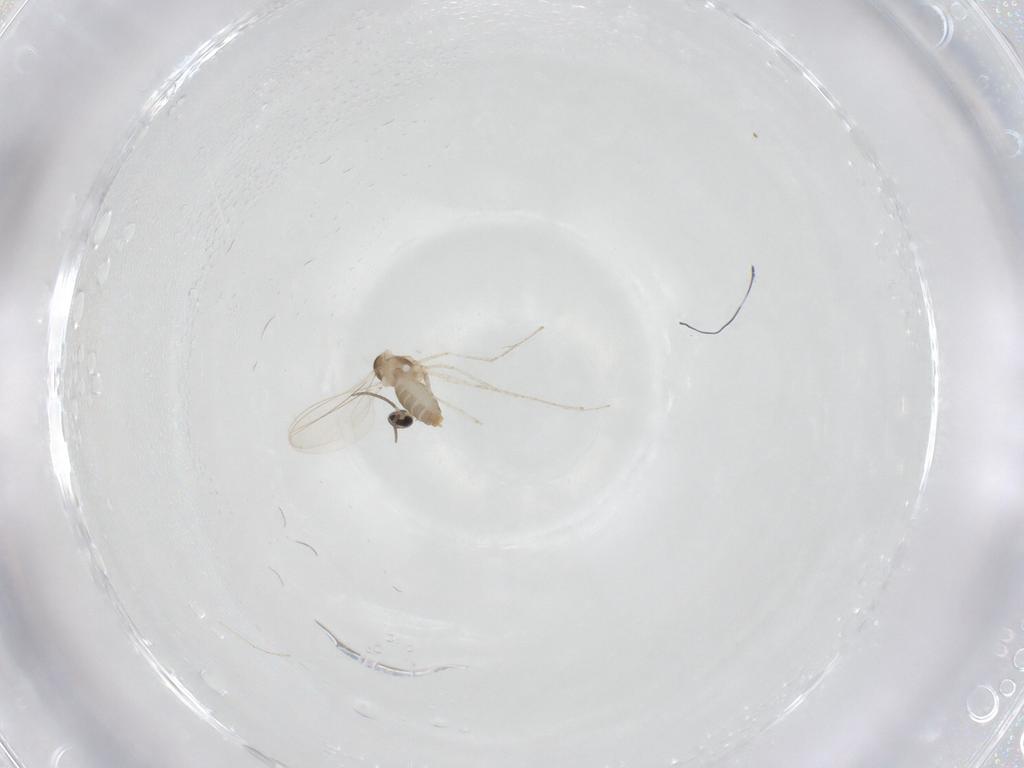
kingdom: Animalia
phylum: Arthropoda
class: Insecta
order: Diptera
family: Cecidomyiidae
